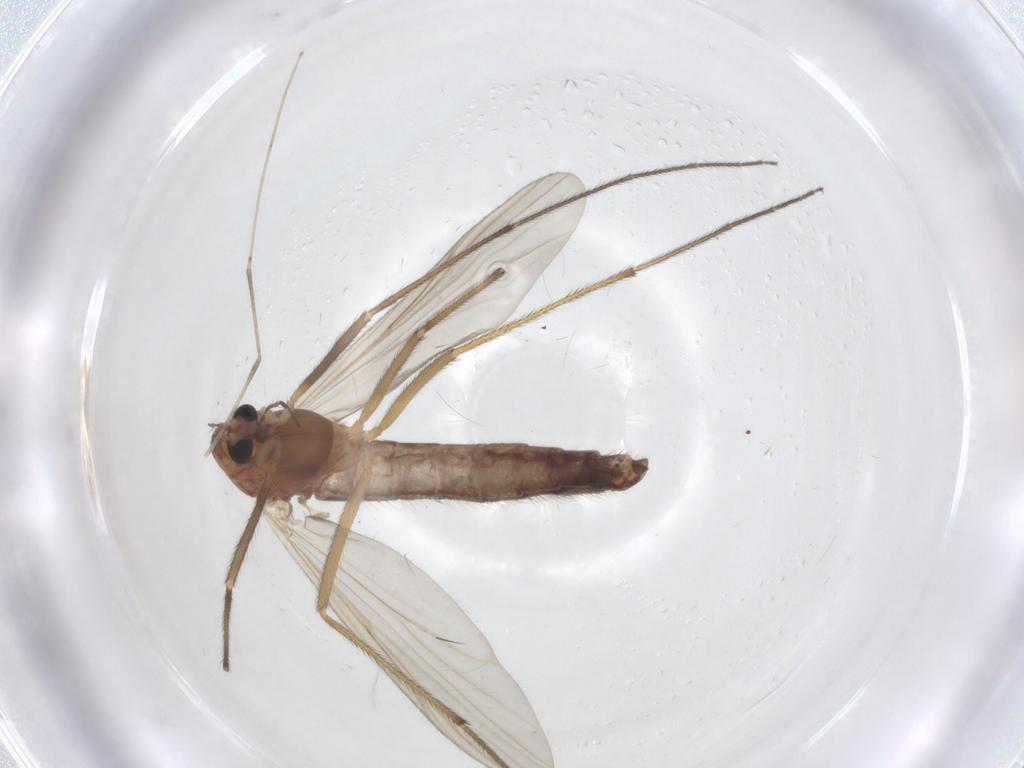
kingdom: Animalia
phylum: Arthropoda
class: Insecta
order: Diptera
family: Chironomidae
